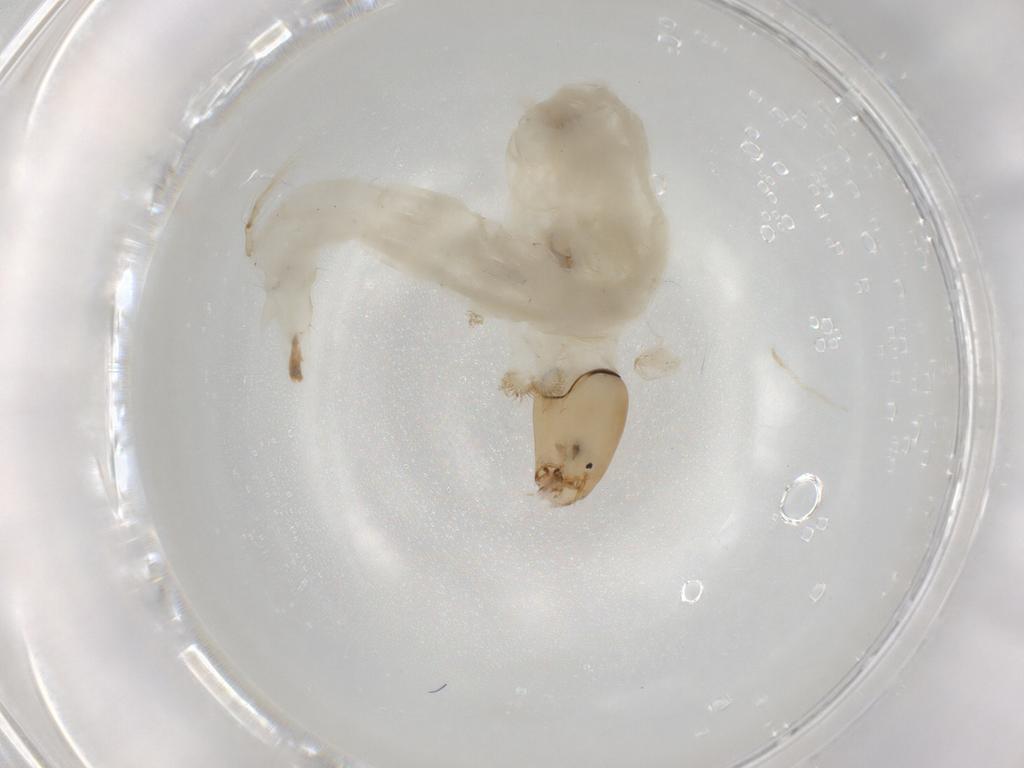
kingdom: Animalia
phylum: Arthropoda
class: Insecta
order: Diptera
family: Chironomidae
